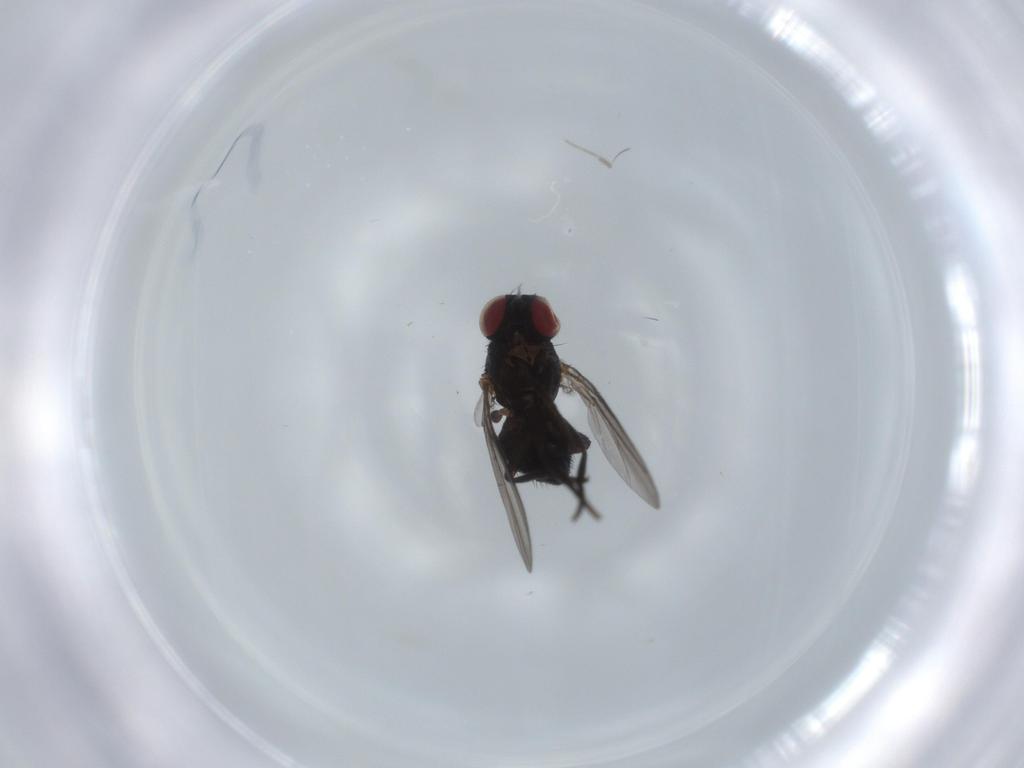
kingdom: Animalia
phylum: Arthropoda
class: Insecta
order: Diptera
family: Agromyzidae
